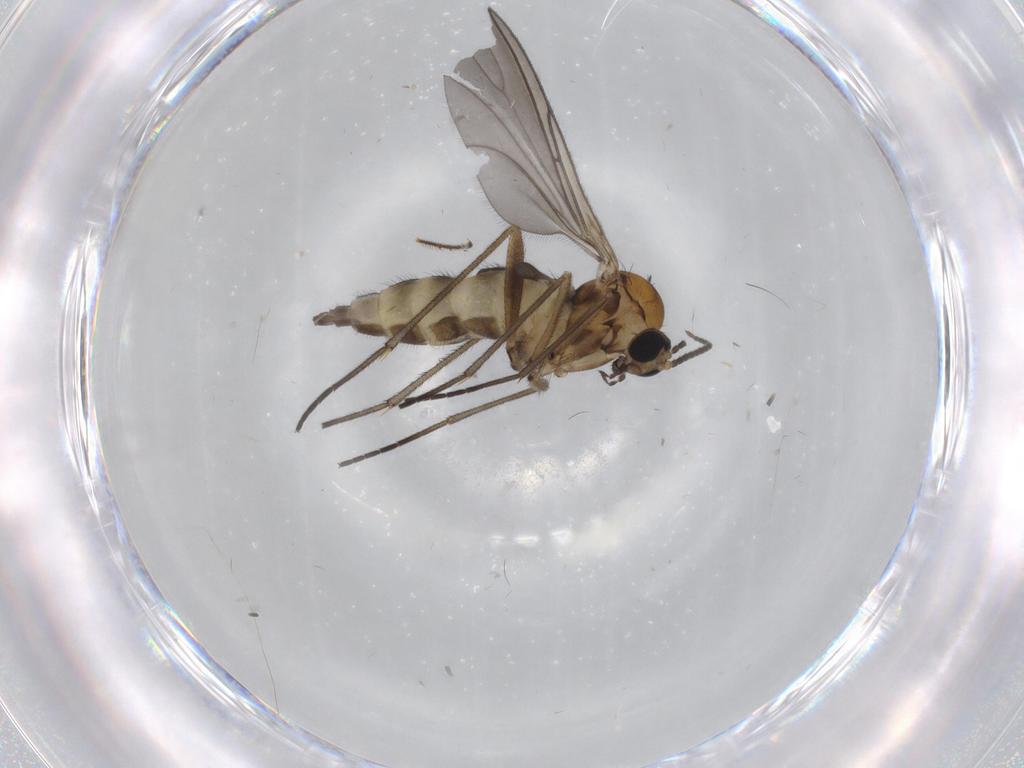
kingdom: Animalia
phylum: Arthropoda
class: Insecta
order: Diptera
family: Sciaridae
